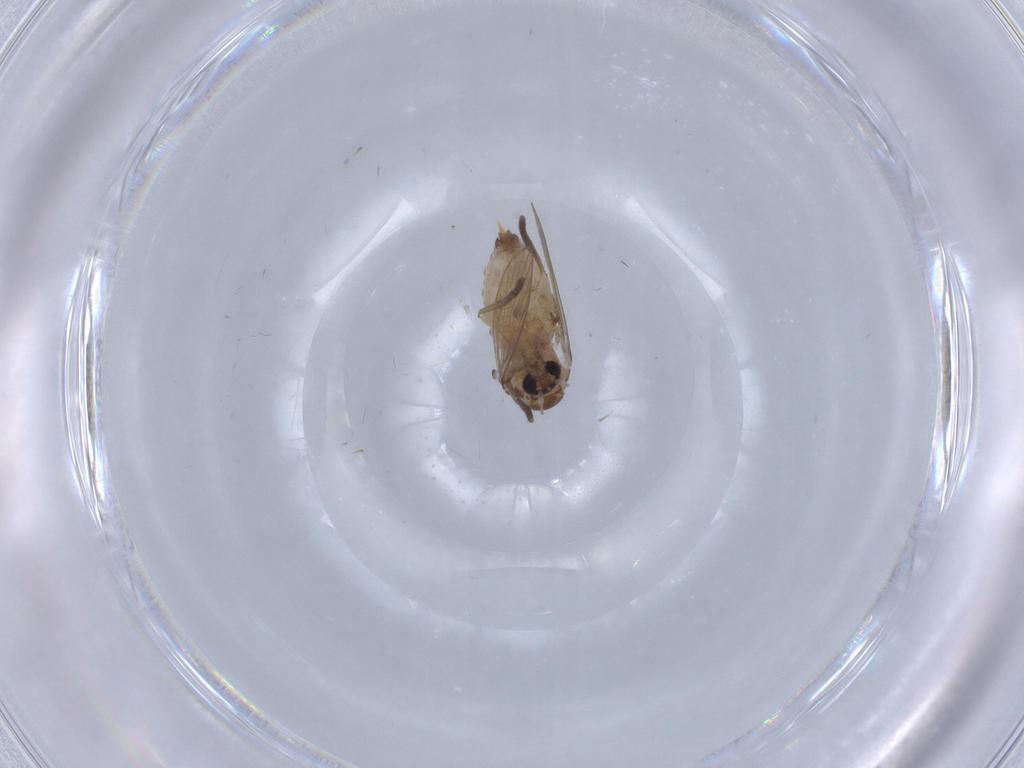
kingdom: Animalia
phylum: Arthropoda
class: Insecta
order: Diptera
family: Psychodidae
